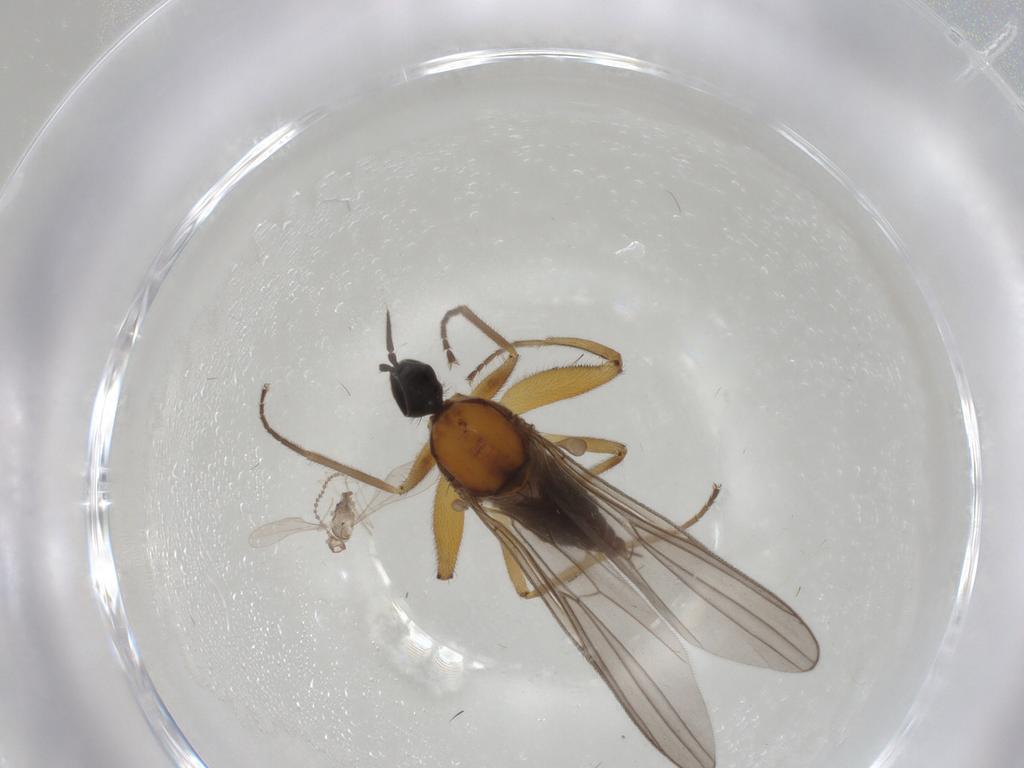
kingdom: Animalia
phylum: Arthropoda
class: Insecta
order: Diptera
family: Hybotidae
